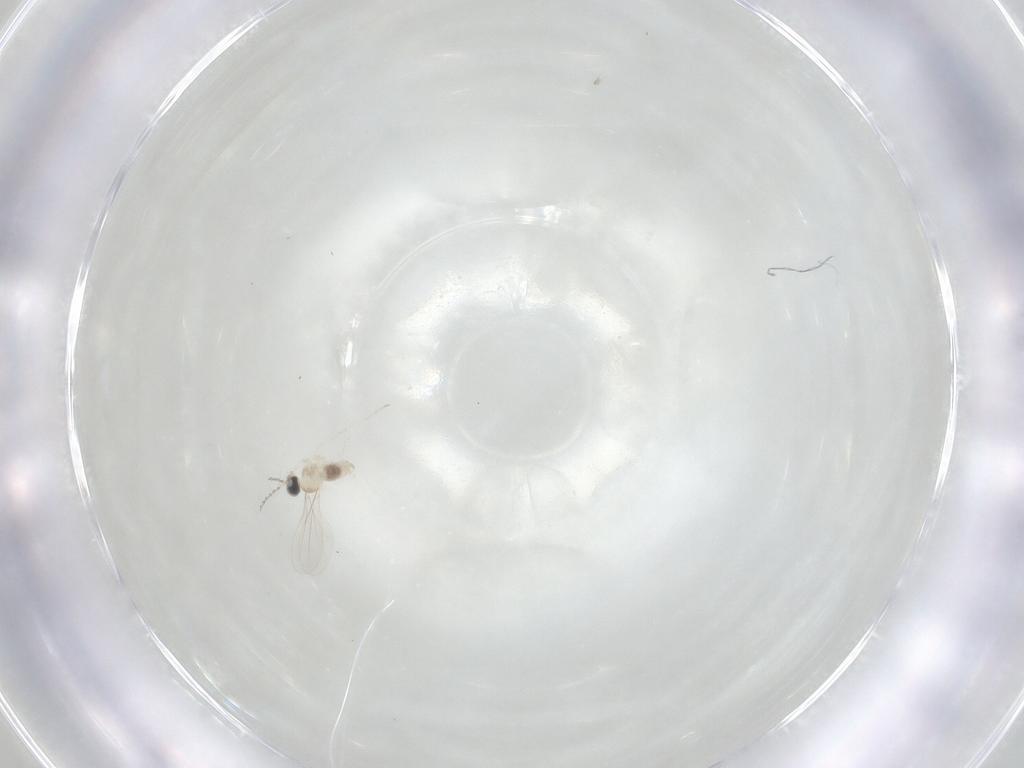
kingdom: Animalia
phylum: Arthropoda
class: Insecta
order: Diptera
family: Cecidomyiidae
